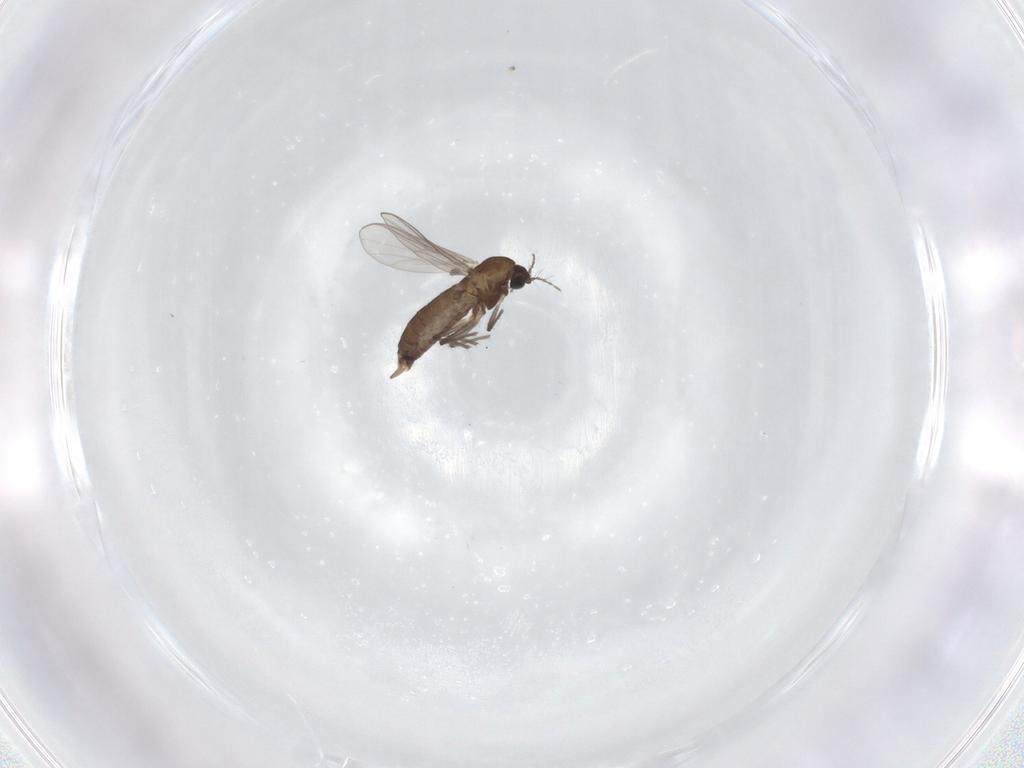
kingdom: Animalia
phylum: Arthropoda
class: Insecta
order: Diptera
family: Chironomidae
